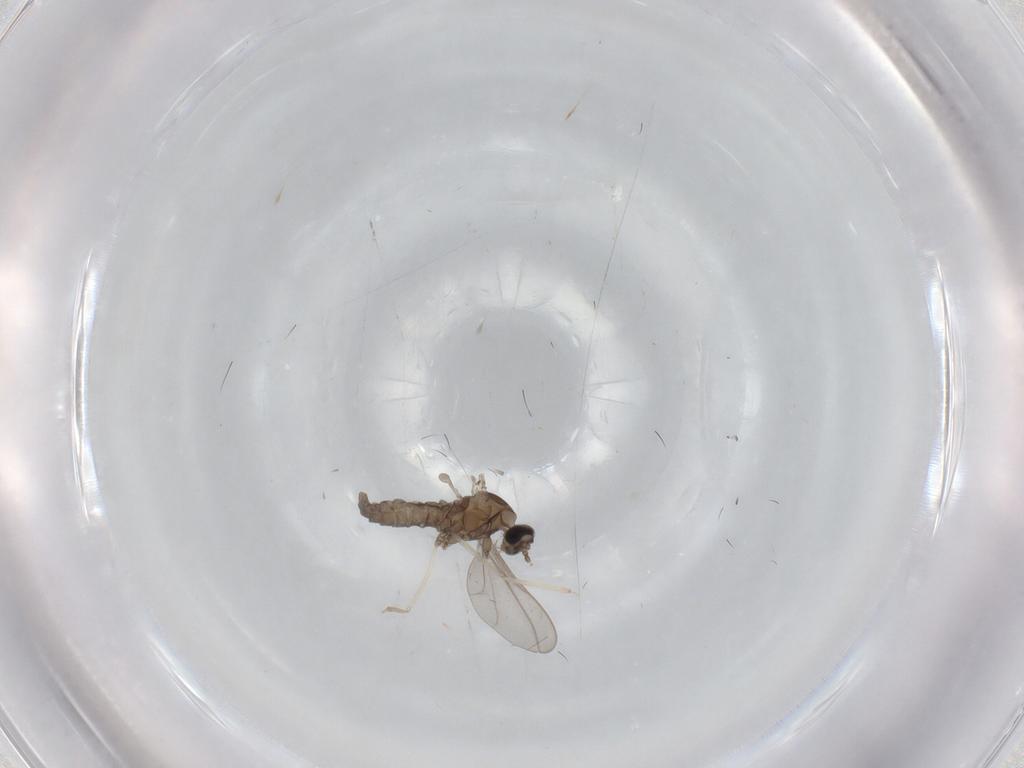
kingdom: Animalia
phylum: Arthropoda
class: Insecta
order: Diptera
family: Cecidomyiidae
